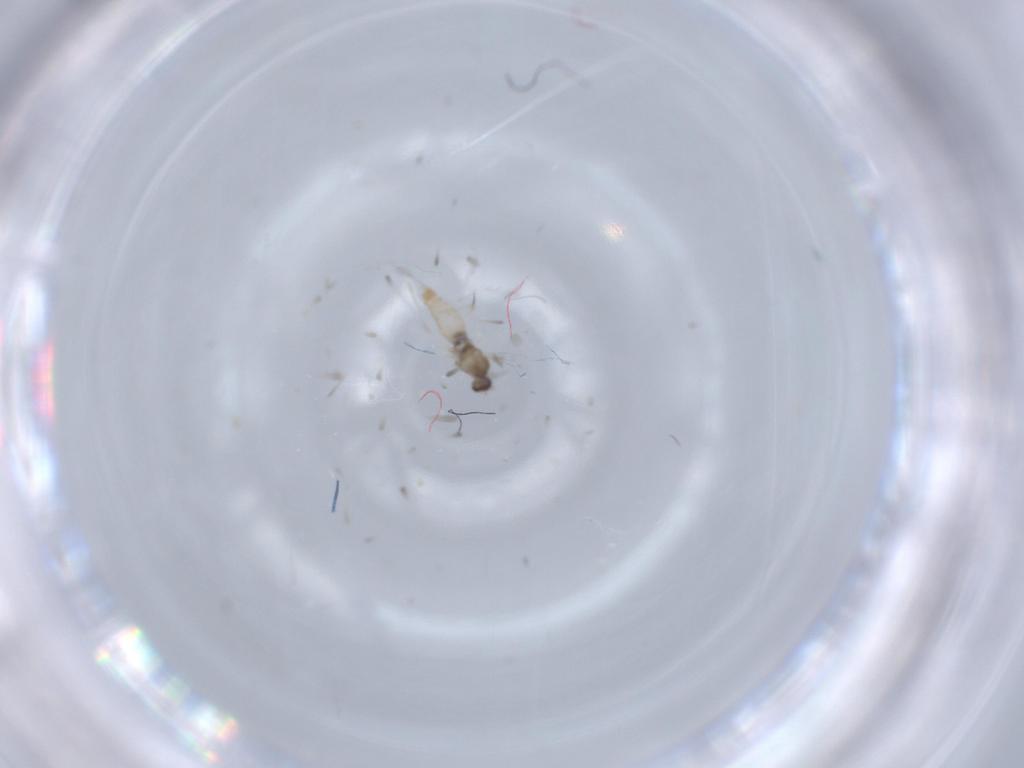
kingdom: Animalia
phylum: Arthropoda
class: Insecta
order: Diptera
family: Cecidomyiidae
